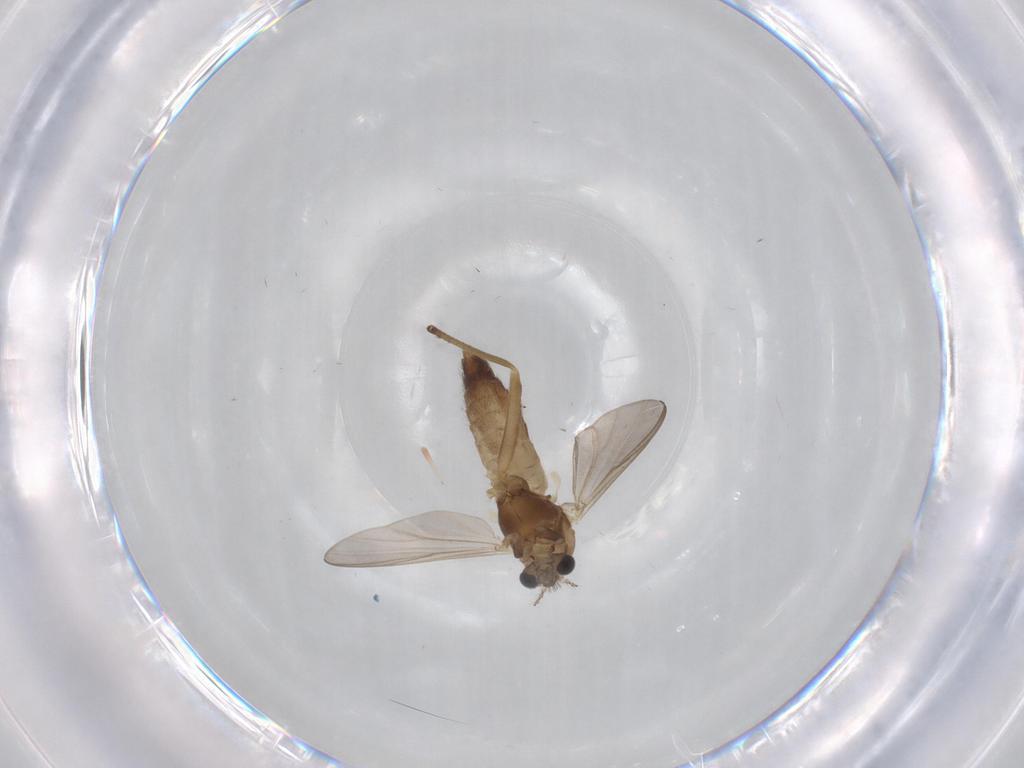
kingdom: Animalia
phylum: Arthropoda
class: Insecta
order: Diptera
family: Chironomidae
